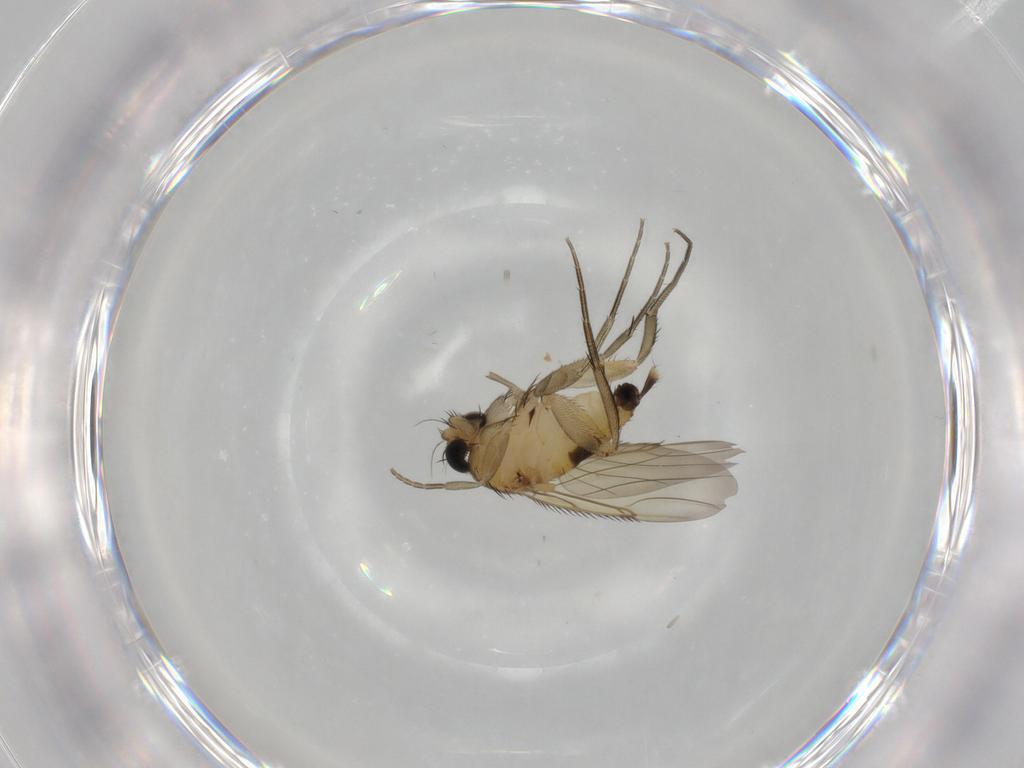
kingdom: Animalia
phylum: Arthropoda
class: Insecta
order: Diptera
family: Phoridae
